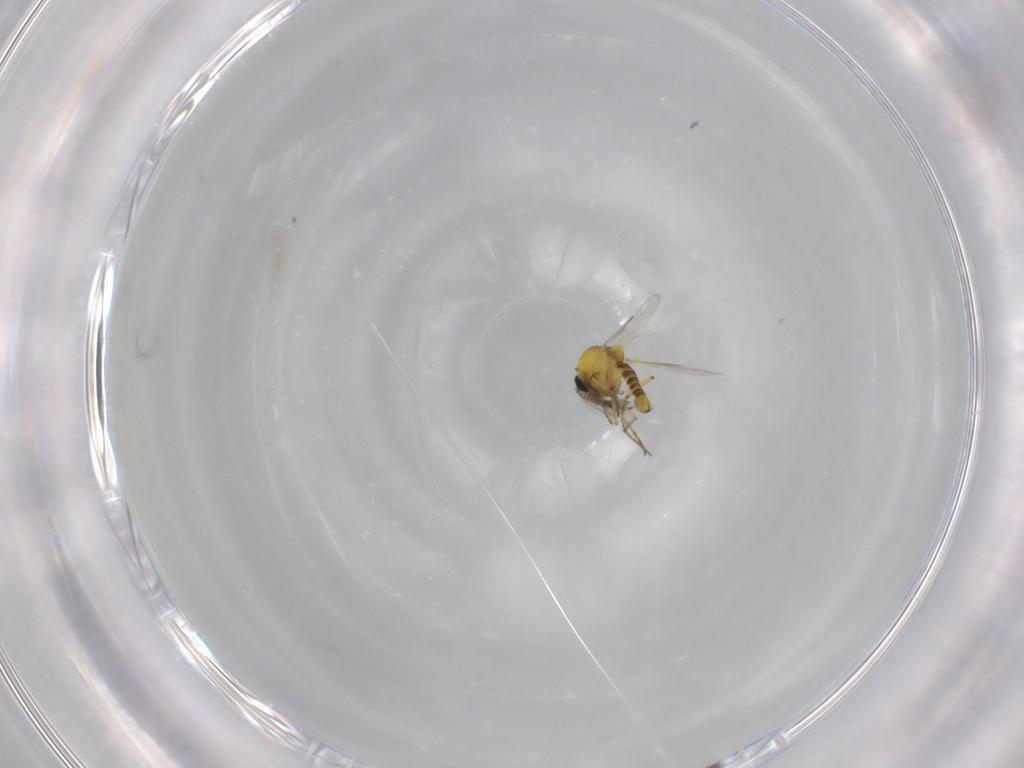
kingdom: Animalia
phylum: Arthropoda
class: Insecta
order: Diptera
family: Ceratopogonidae
